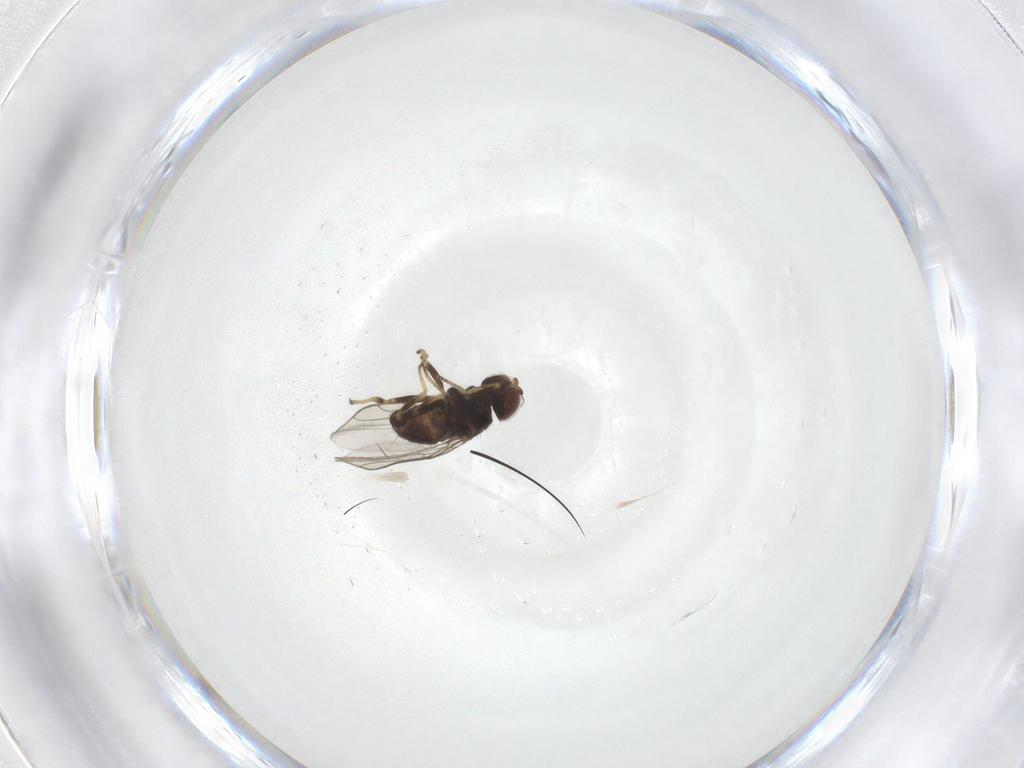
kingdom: Animalia
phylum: Arthropoda
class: Insecta
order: Diptera
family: Chloropidae
